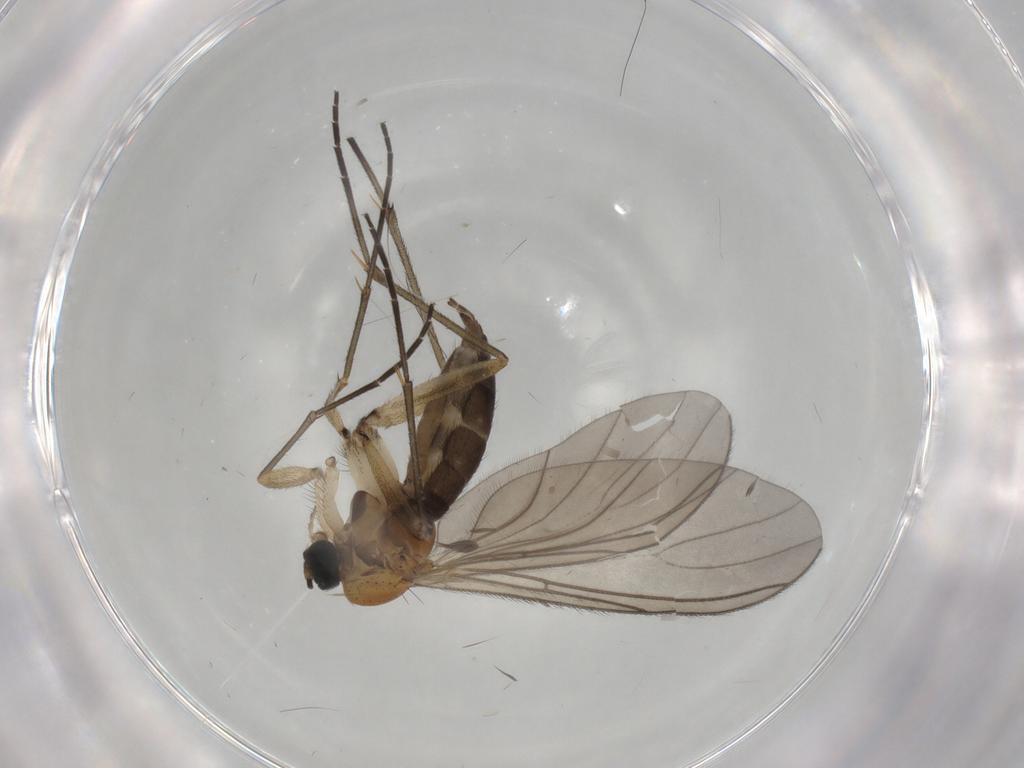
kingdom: Animalia
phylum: Arthropoda
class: Insecta
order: Diptera
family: Sciaridae
